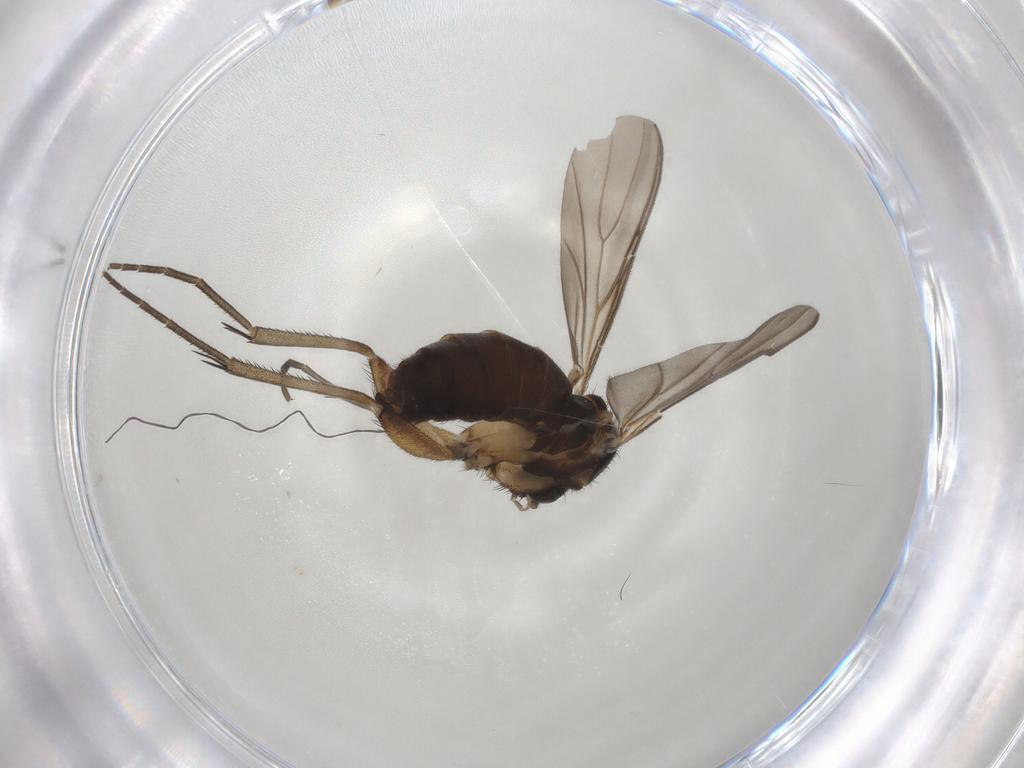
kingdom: Animalia
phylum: Arthropoda
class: Insecta
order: Diptera
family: Mycetophilidae
